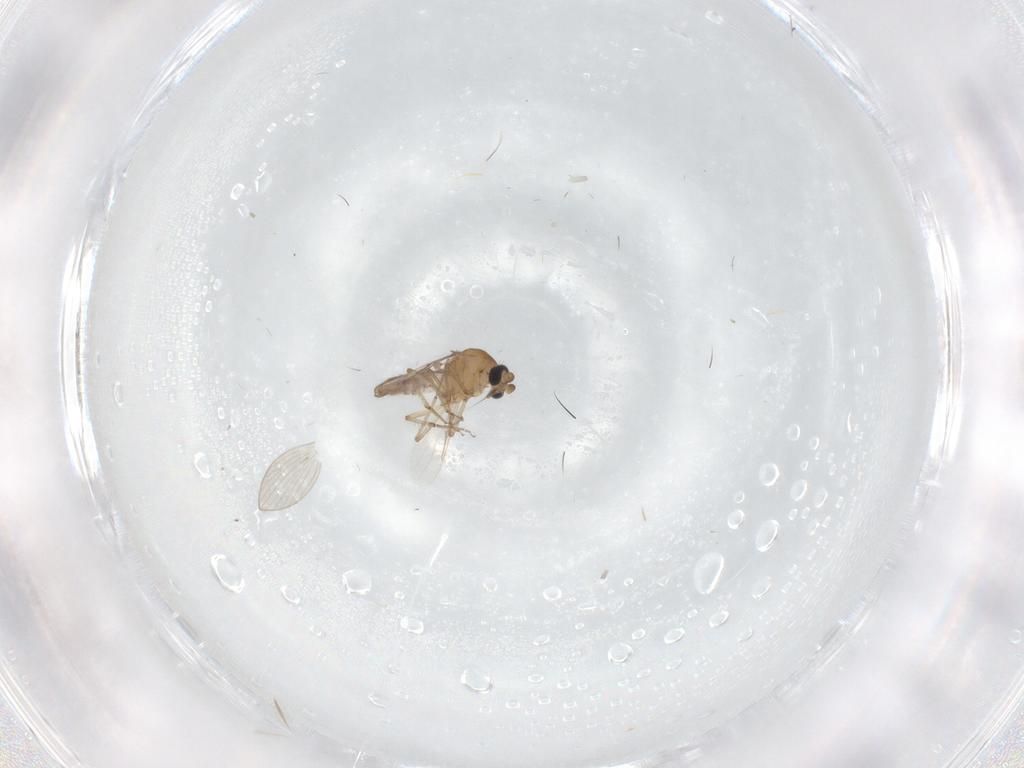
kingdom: Animalia
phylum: Arthropoda
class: Insecta
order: Diptera
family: Ceratopogonidae
